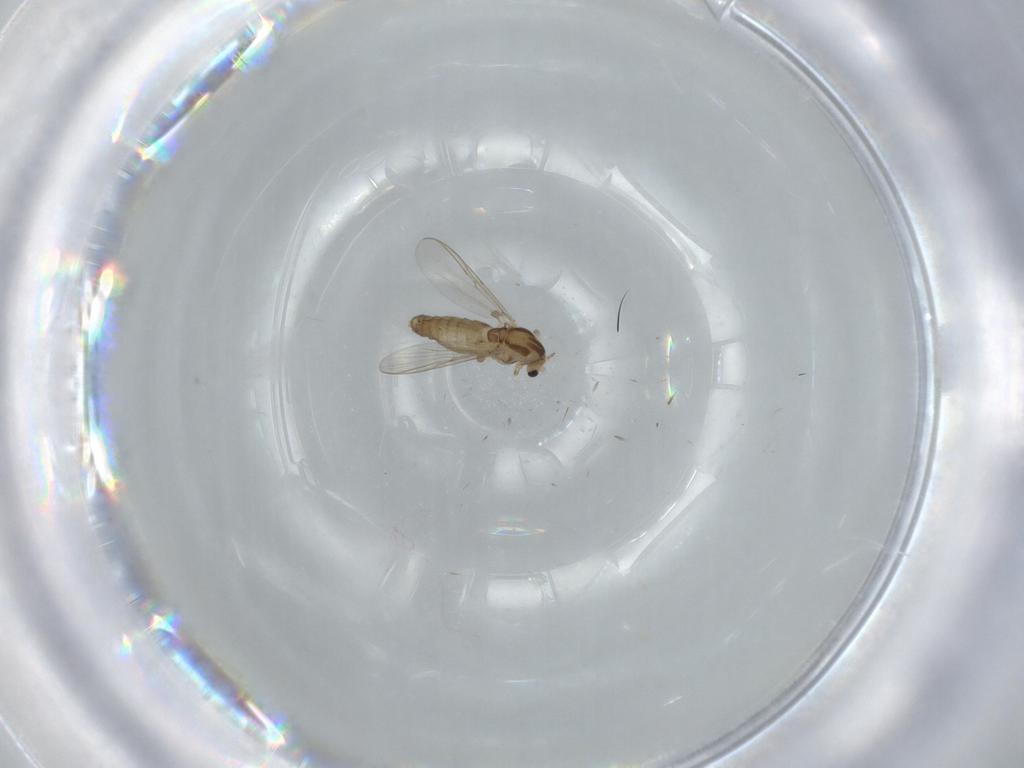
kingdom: Animalia
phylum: Arthropoda
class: Insecta
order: Diptera
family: Chironomidae
